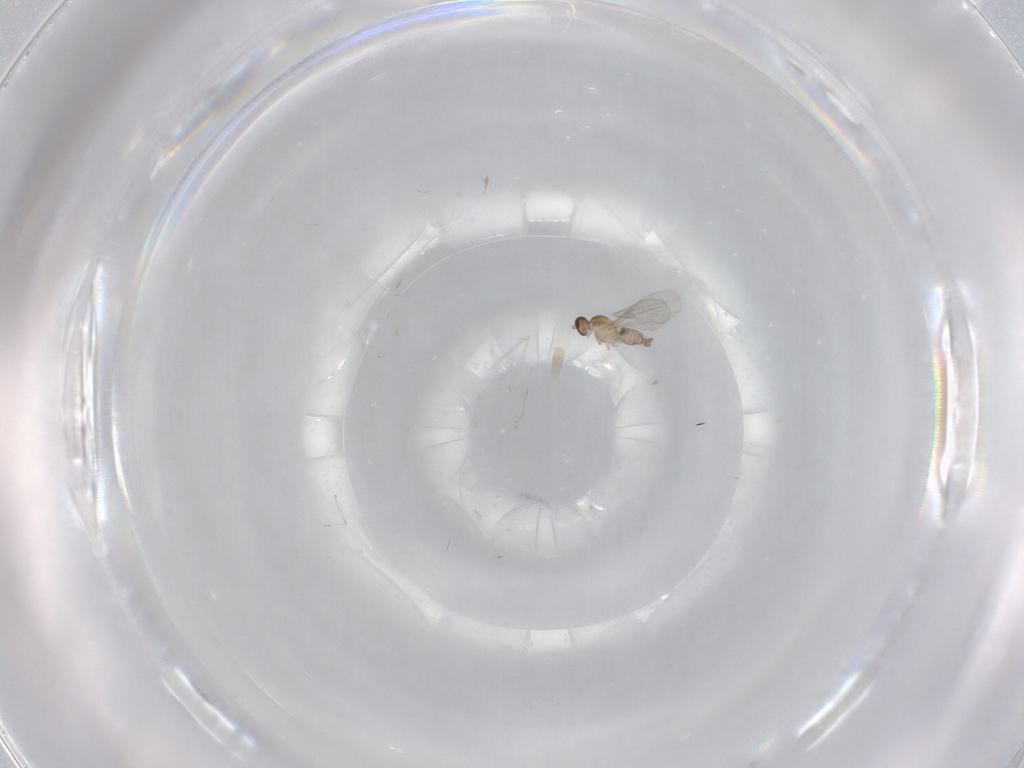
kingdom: Animalia
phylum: Arthropoda
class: Insecta
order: Diptera
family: Cecidomyiidae
